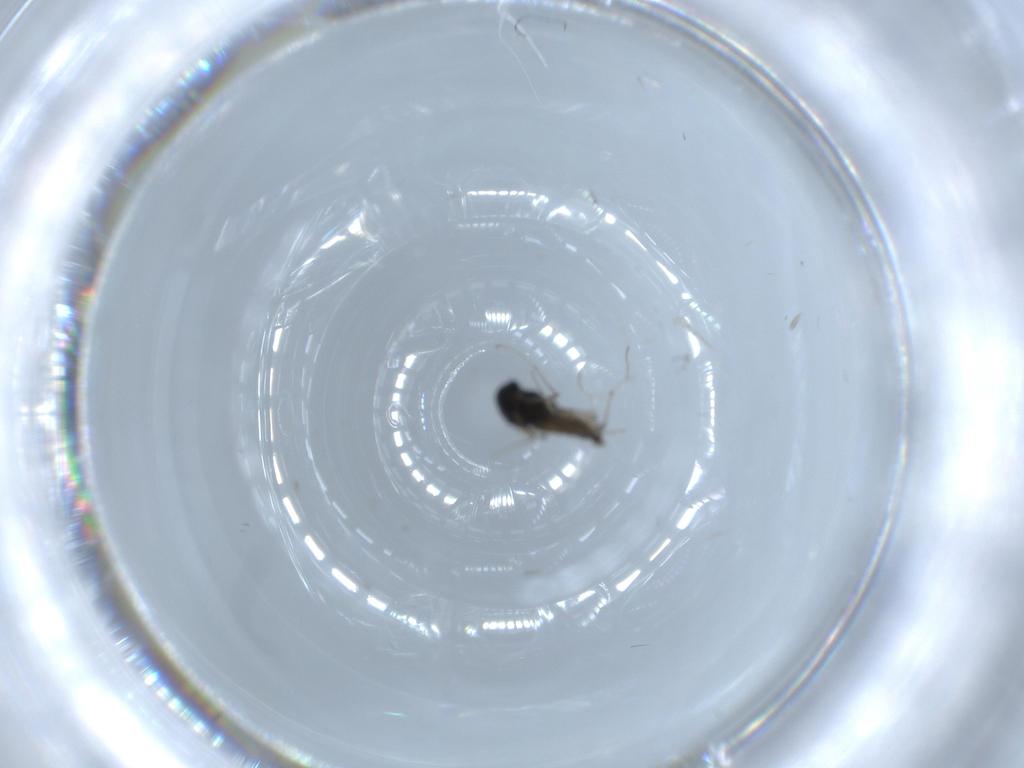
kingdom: Animalia
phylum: Arthropoda
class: Insecta
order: Diptera
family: Chironomidae
